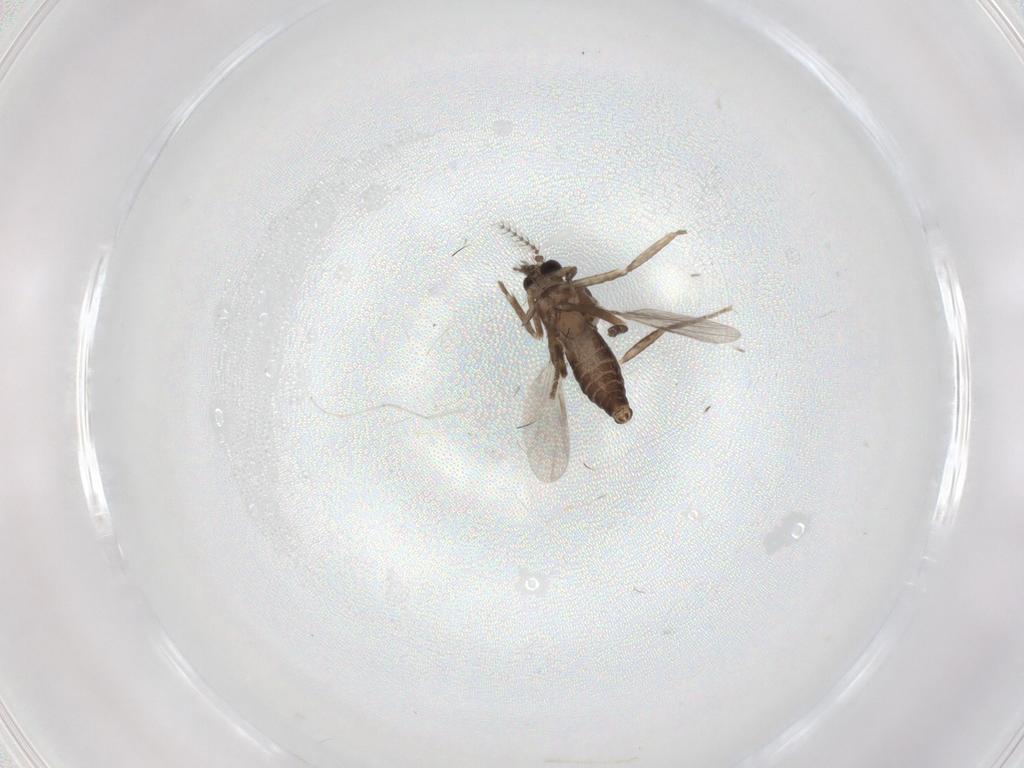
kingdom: Animalia
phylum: Arthropoda
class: Insecta
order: Diptera
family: Ceratopogonidae
